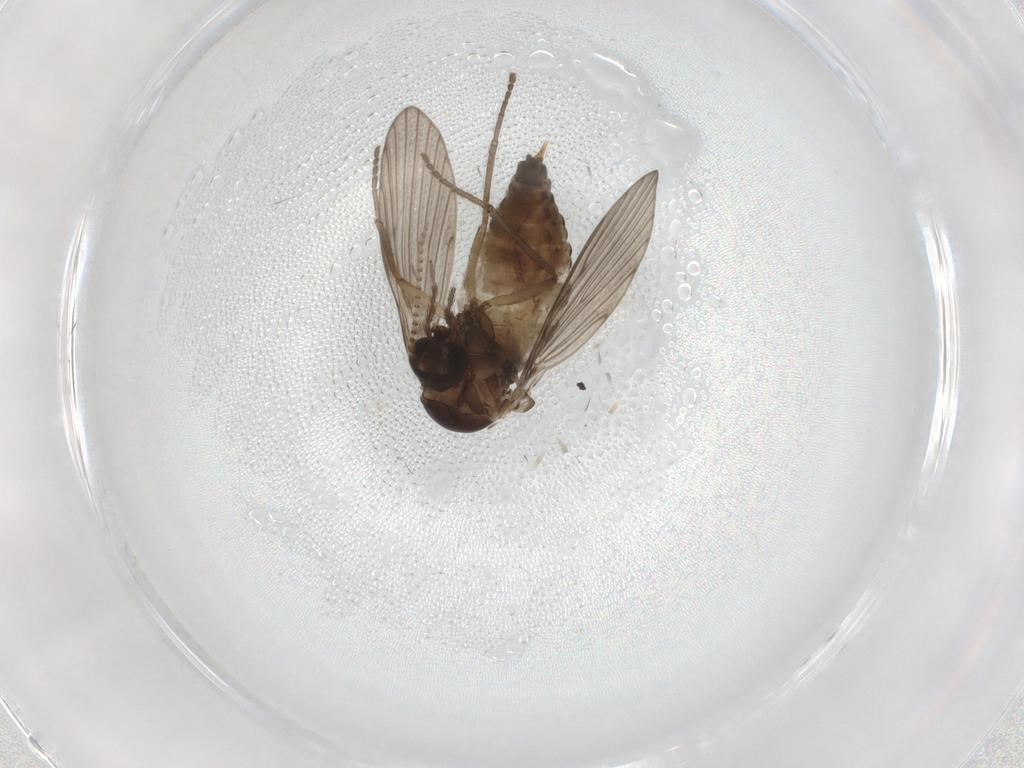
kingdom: Animalia
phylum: Arthropoda
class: Insecta
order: Diptera
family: Psychodidae
